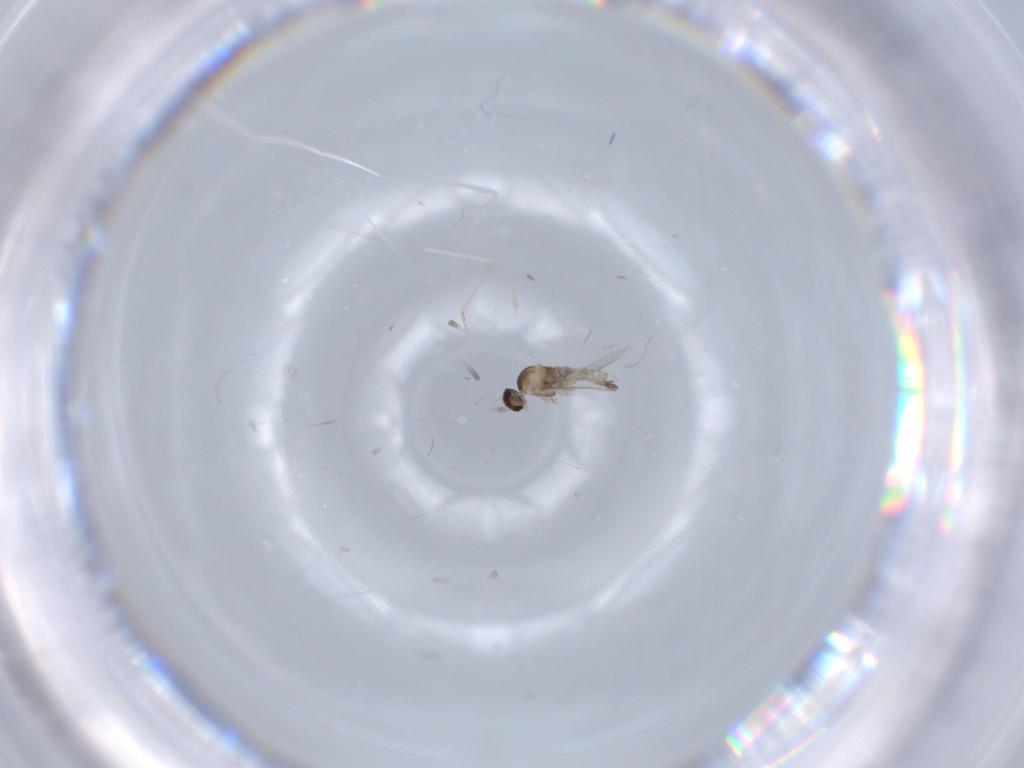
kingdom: Animalia
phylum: Arthropoda
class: Insecta
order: Diptera
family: Cecidomyiidae
